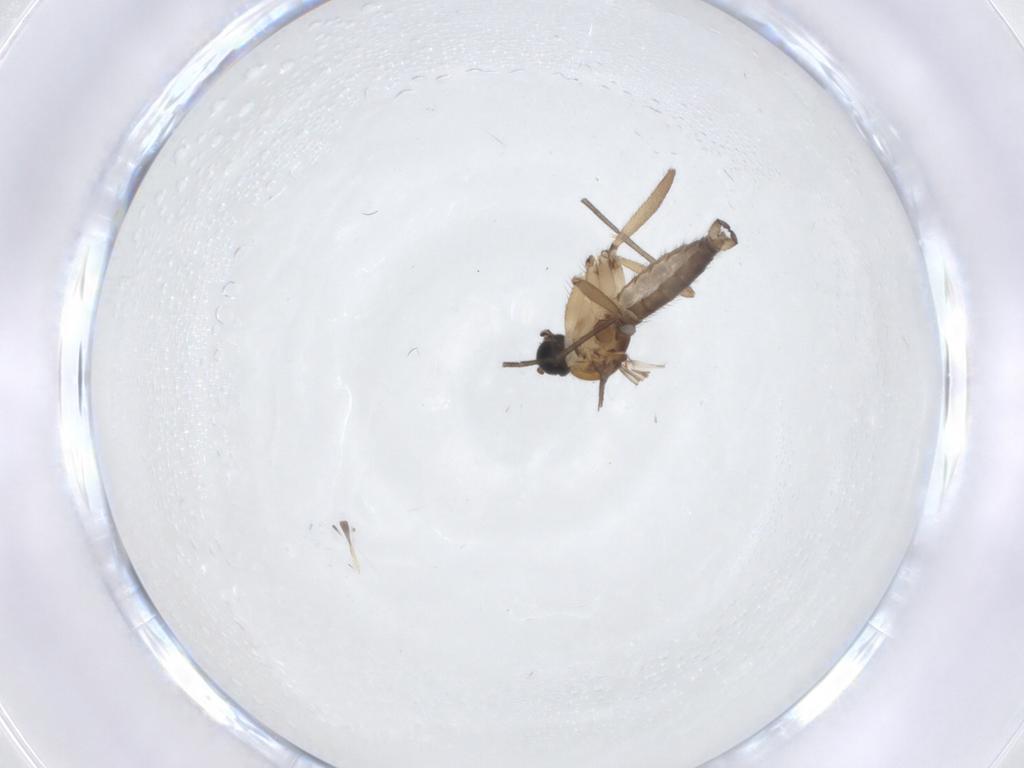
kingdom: Animalia
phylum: Arthropoda
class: Insecta
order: Diptera
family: Sciaridae
